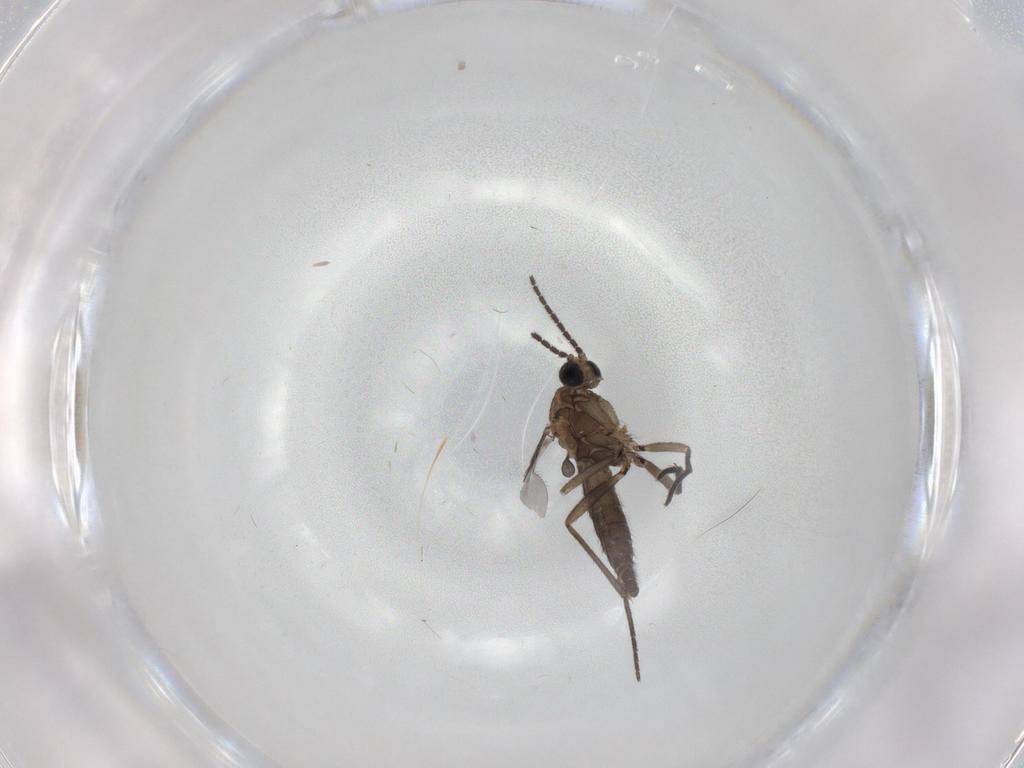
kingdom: Animalia
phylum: Arthropoda
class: Insecta
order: Diptera
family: Sciaridae
